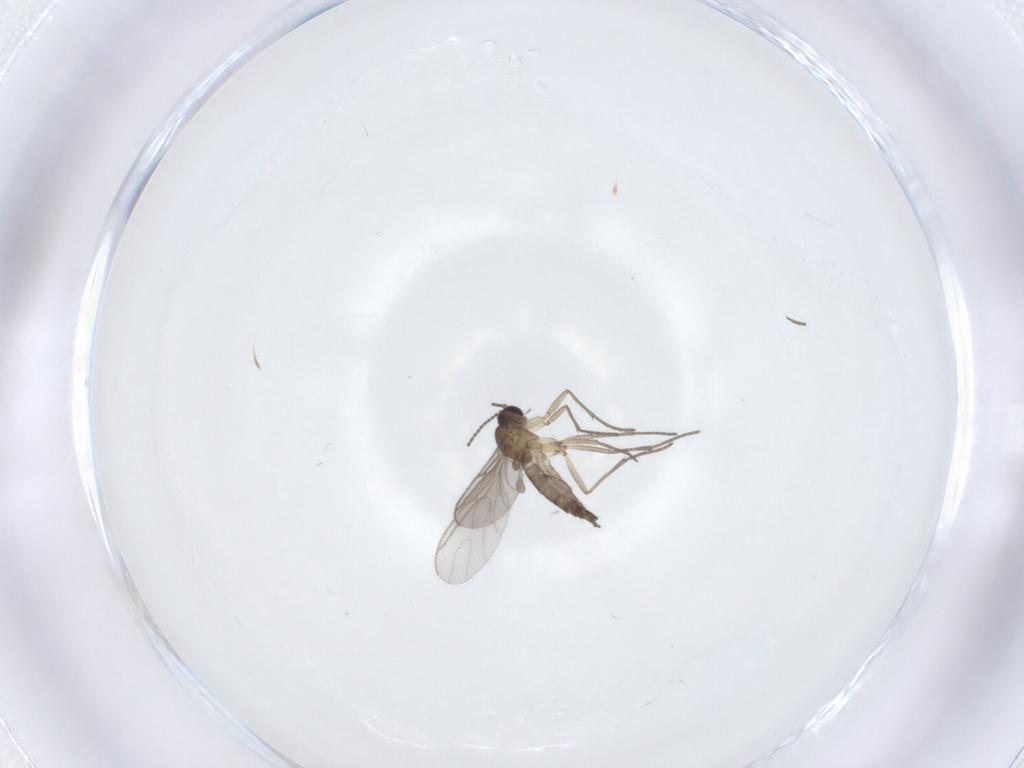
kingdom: Animalia
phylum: Arthropoda
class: Insecta
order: Diptera
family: Sciaridae
